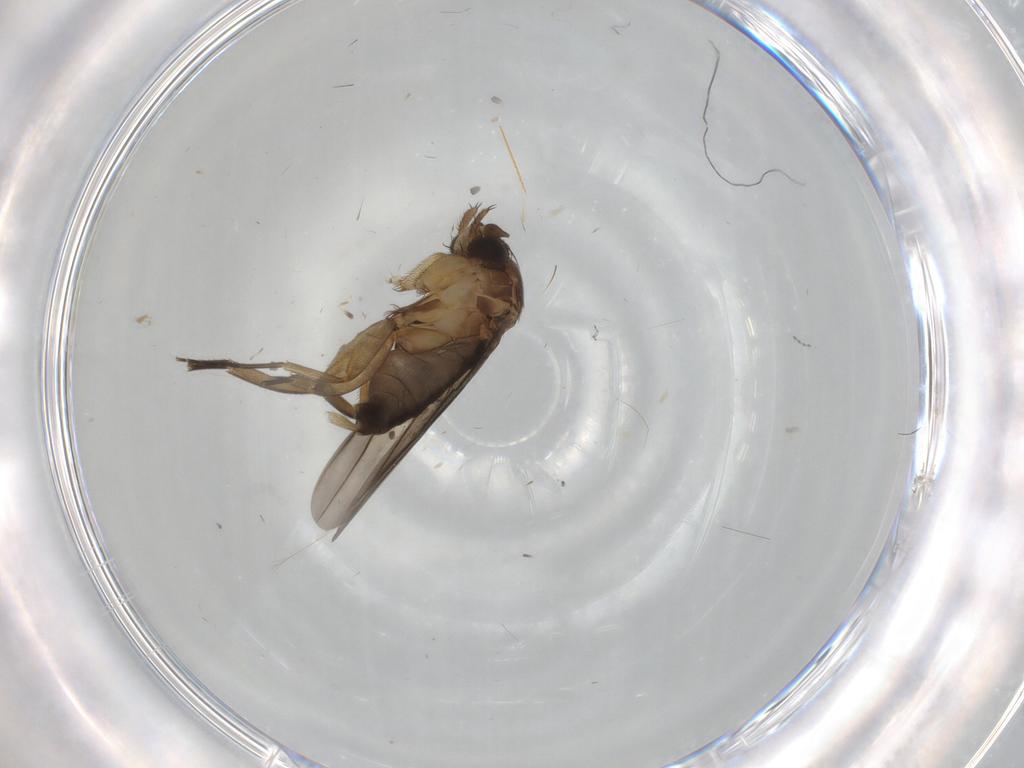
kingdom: Animalia
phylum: Arthropoda
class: Insecta
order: Diptera
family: Phoridae
